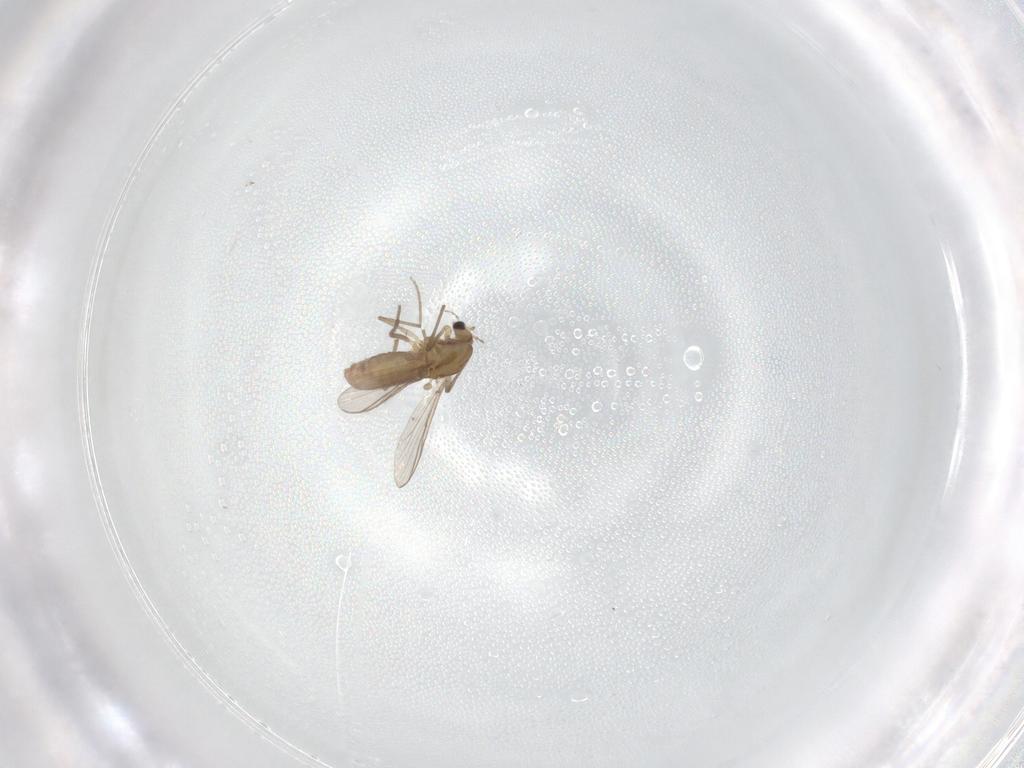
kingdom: Animalia
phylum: Arthropoda
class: Insecta
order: Diptera
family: Chironomidae
